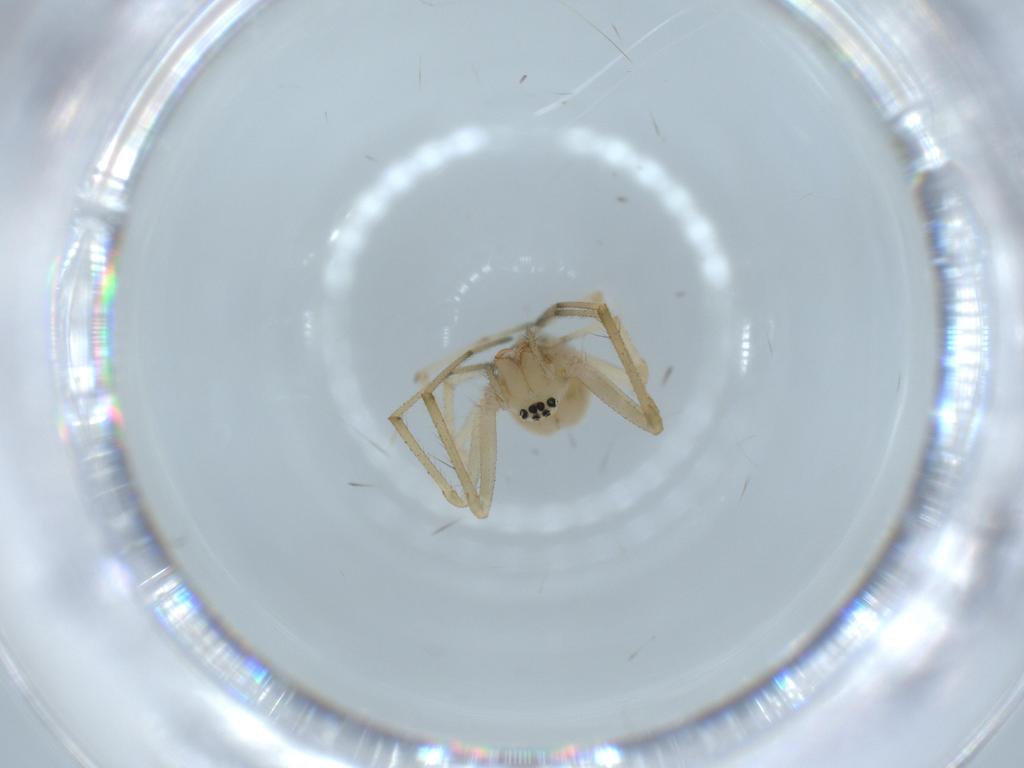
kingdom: Animalia
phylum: Arthropoda
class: Arachnida
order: Araneae
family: Linyphiidae
